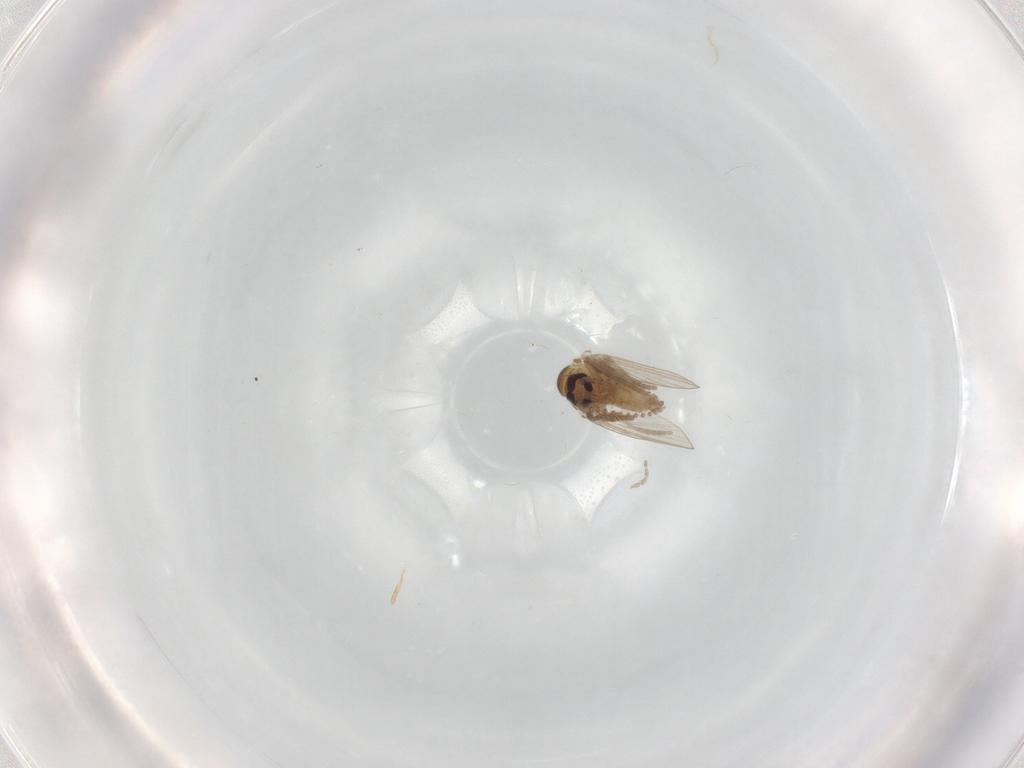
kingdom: Animalia
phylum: Arthropoda
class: Insecta
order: Diptera
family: Psychodidae
